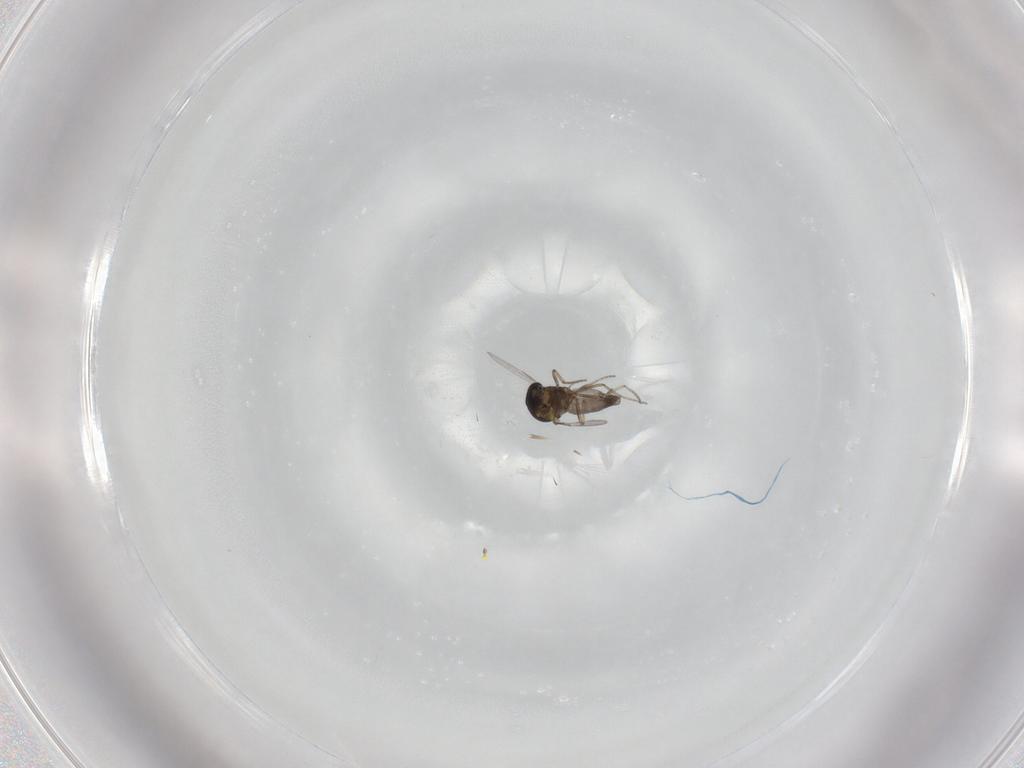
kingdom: Animalia
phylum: Arthropoda
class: Insecta
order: Diptera
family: Ceratopogonidae
